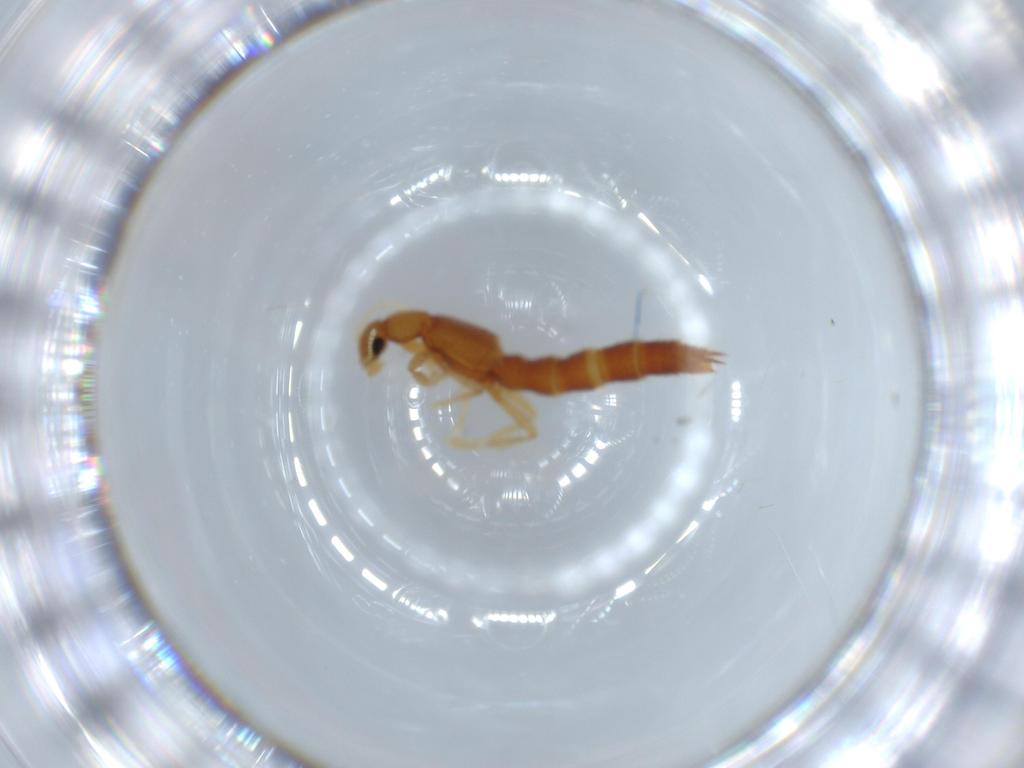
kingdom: Animalia
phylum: Arthropoda
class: Insecta
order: Coleoptera
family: Staphylinidae
